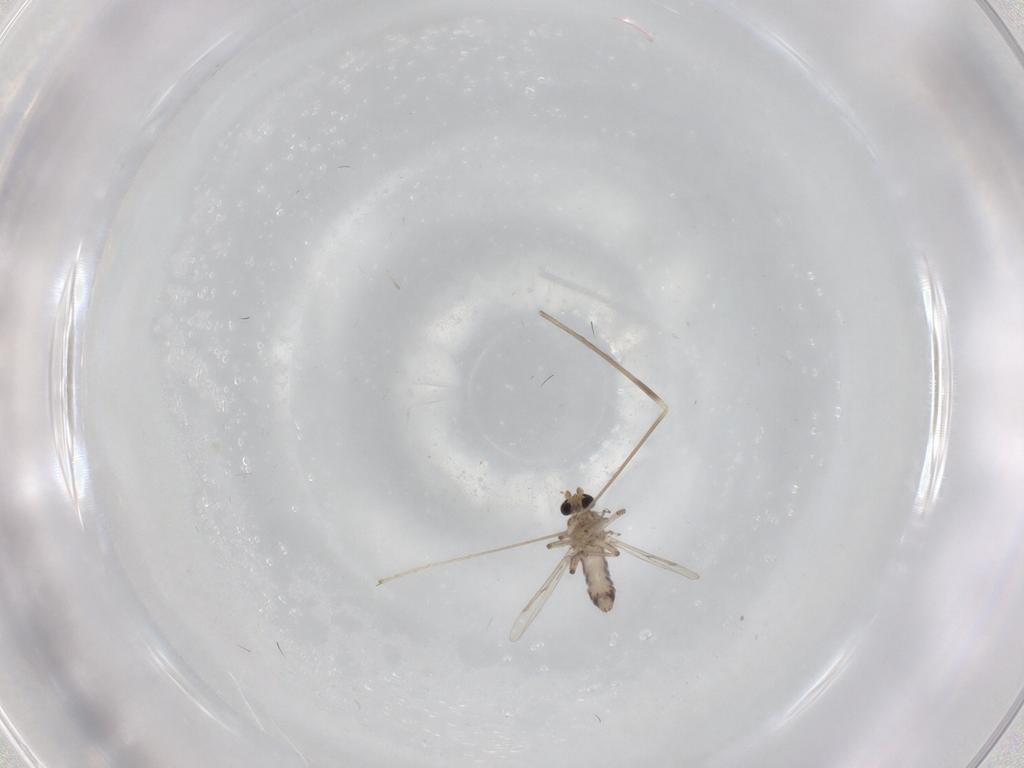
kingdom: Animalia
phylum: Arthropoda
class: Insecta
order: Diptera
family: Ceratopogonidae
